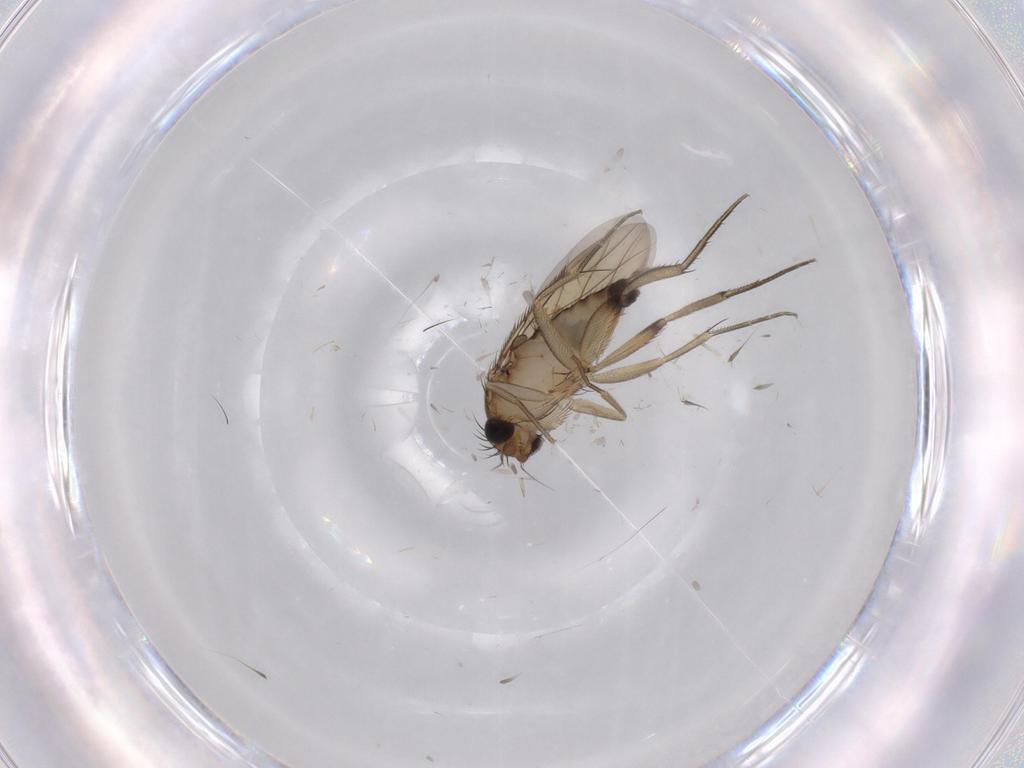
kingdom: Animalia
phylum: Arthropoda
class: Insecta
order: Diptera
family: Phoridae
